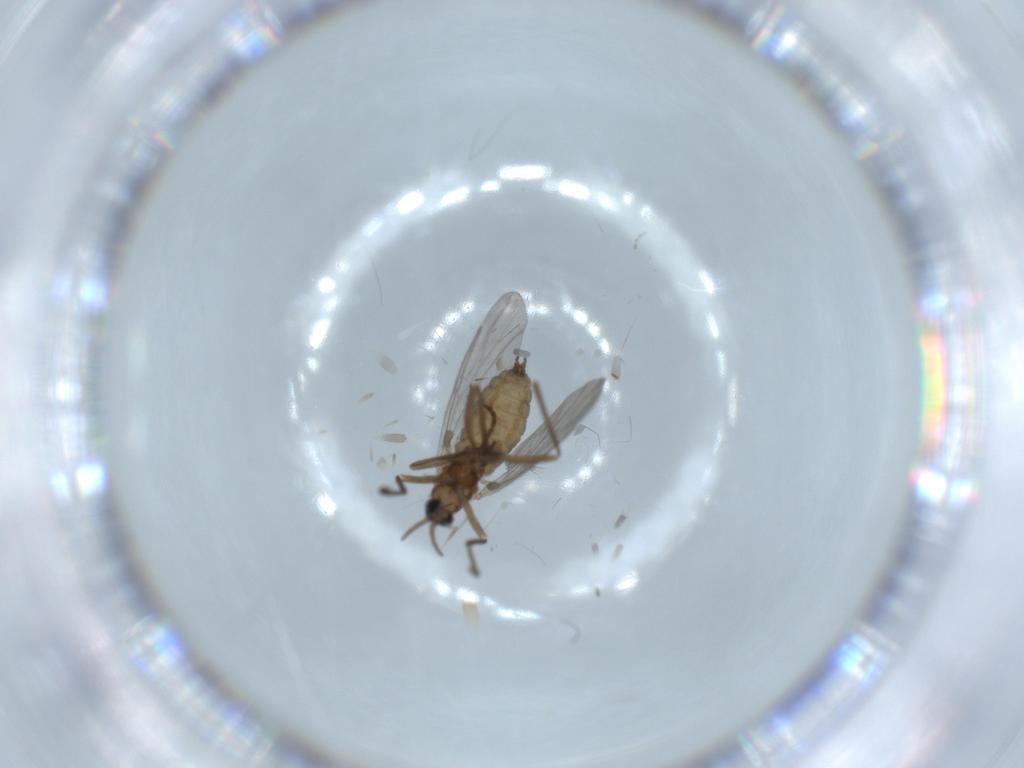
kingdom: Animalia
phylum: Arthropoda
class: Insecta
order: Diptera
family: Cecidomyiidae
